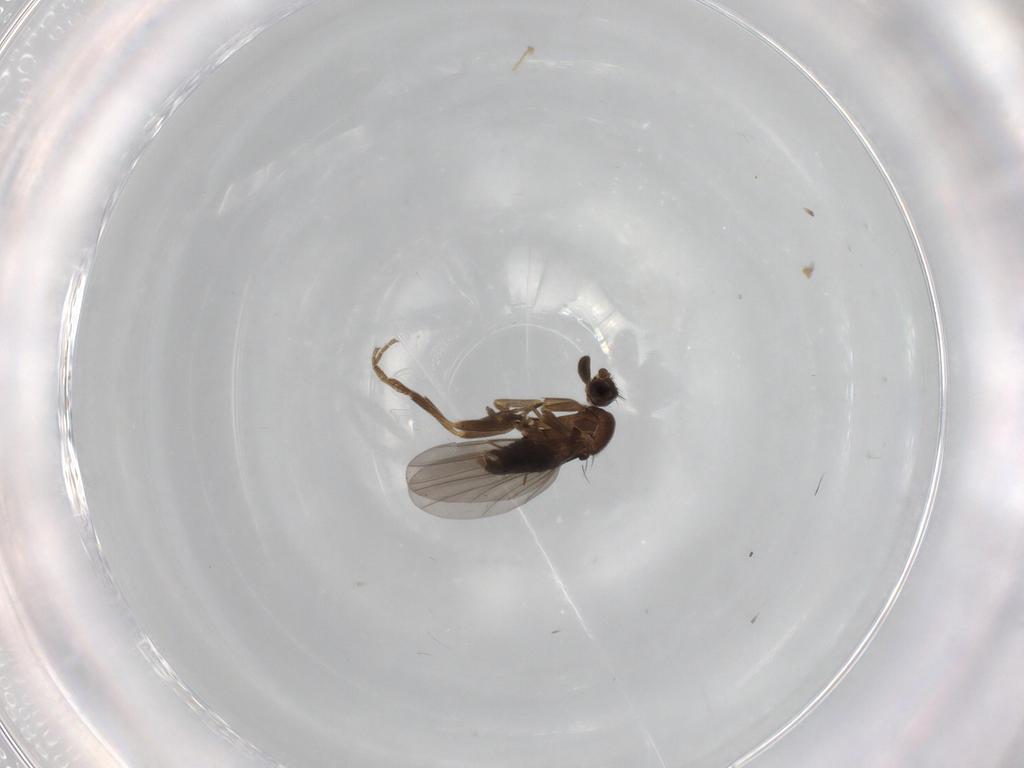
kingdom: Animalia
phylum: Arthropoda
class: Insecta
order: Diptera
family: Phoridae
